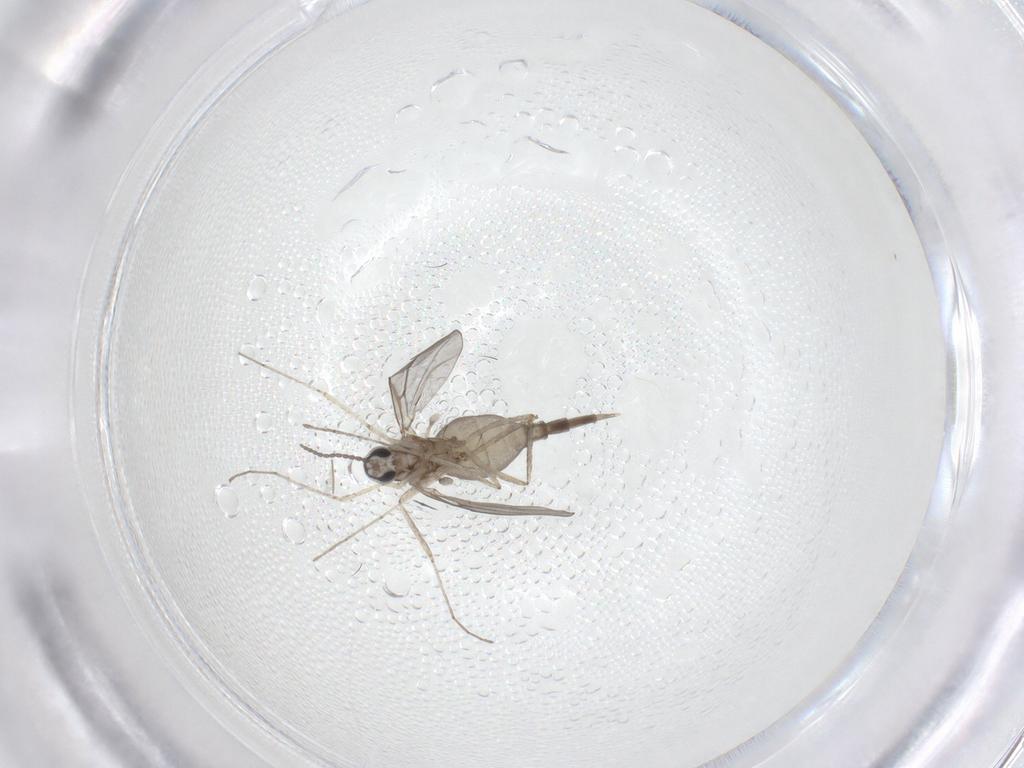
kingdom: Animalia
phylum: Arthropoda
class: Insecta
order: Diptera
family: Cecidomyiidae
